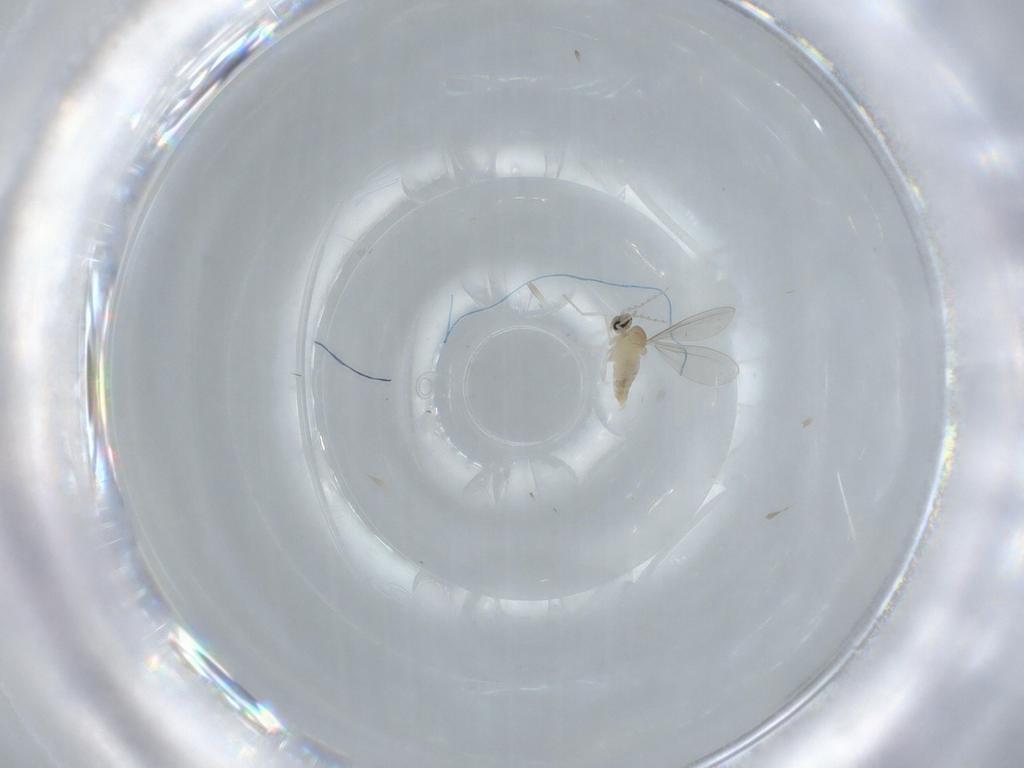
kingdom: Animalia
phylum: Arthropoda
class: Insecta
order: Diptera
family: Cecidomyiidae
